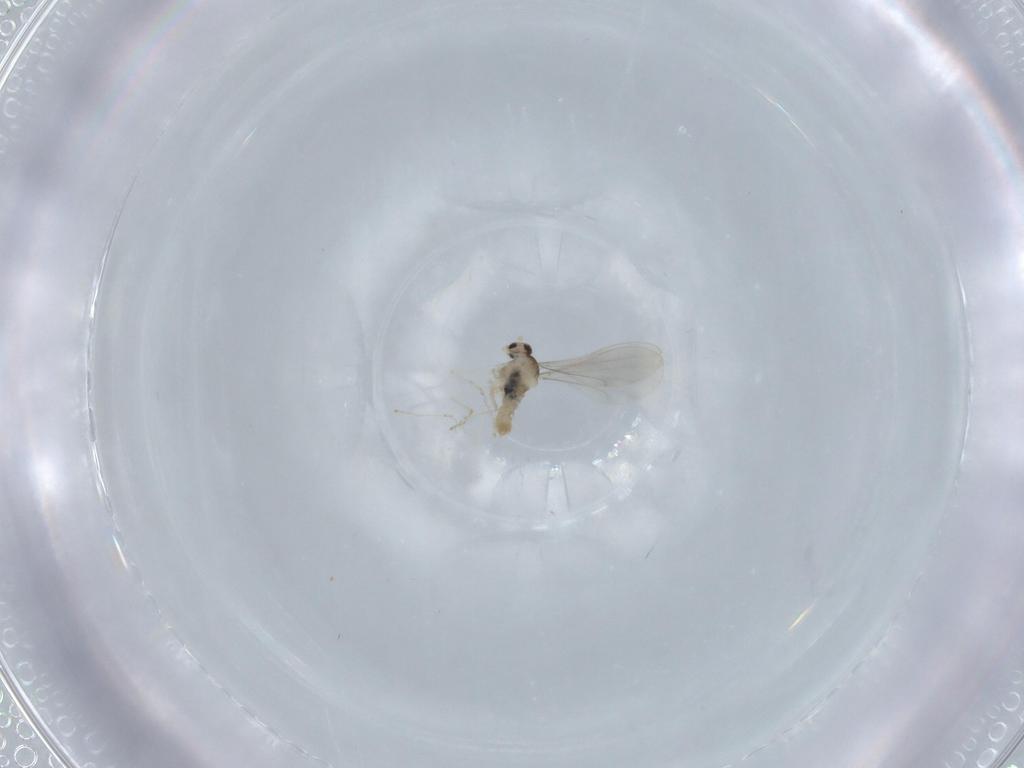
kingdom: Animalia
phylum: Arthropoda
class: Insecta
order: Diptera
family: Cecidomyiidae
